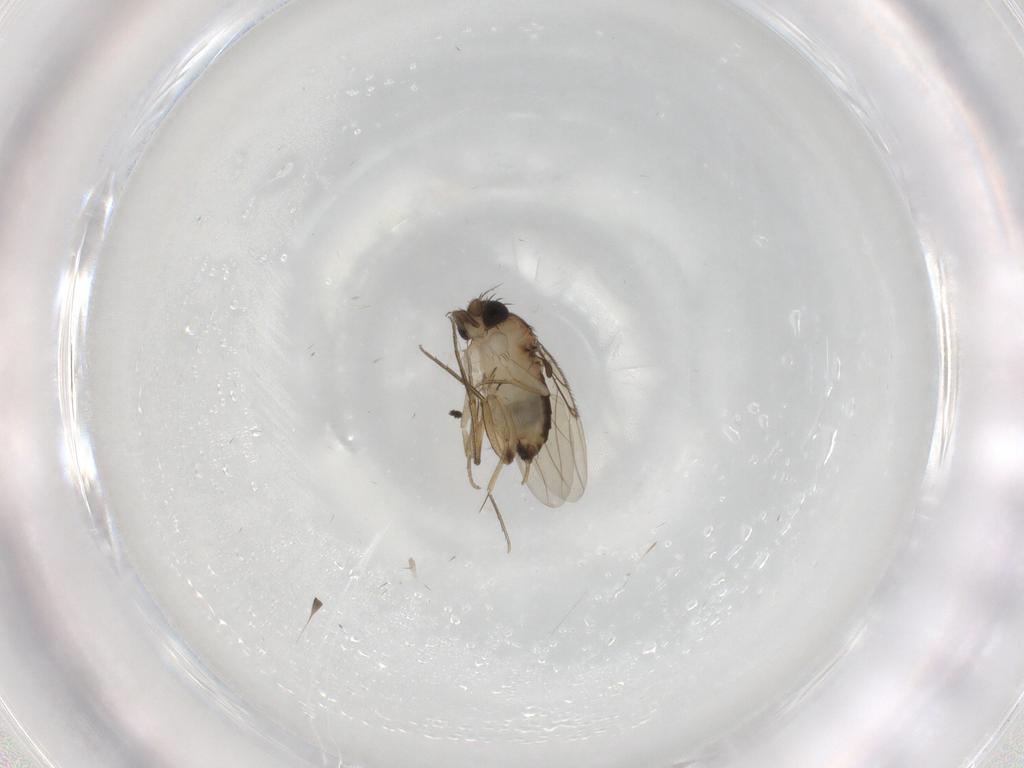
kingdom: Animalia
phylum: Arthropoda
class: Insecta
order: Diptera
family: Phoridae
